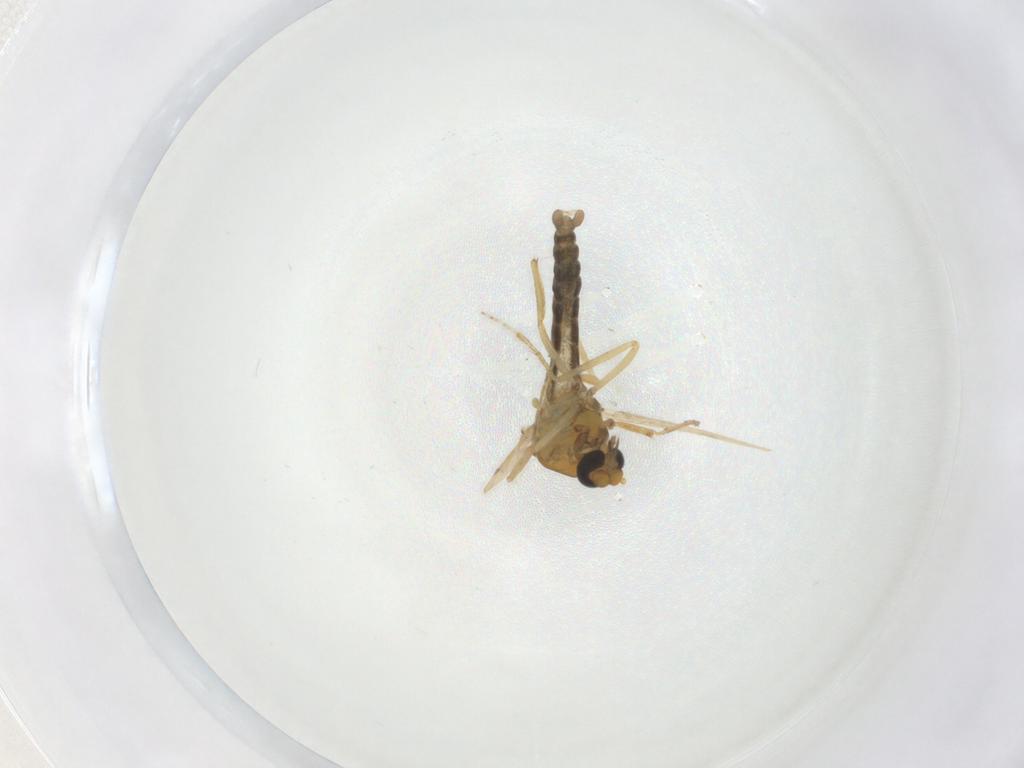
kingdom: Animalia
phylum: Arthropoda
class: Insecta
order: Diptera
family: Ceratopogonidae
